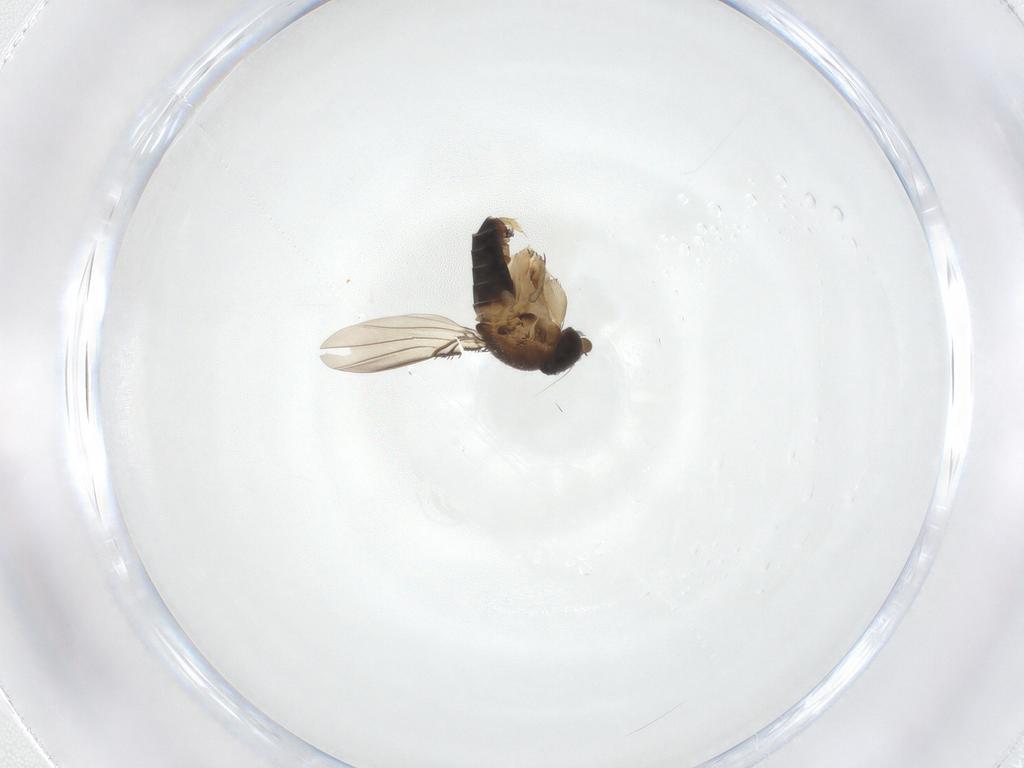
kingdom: Animalia
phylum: Arthropoda
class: Insecta
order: Diptera
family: Phoridae
